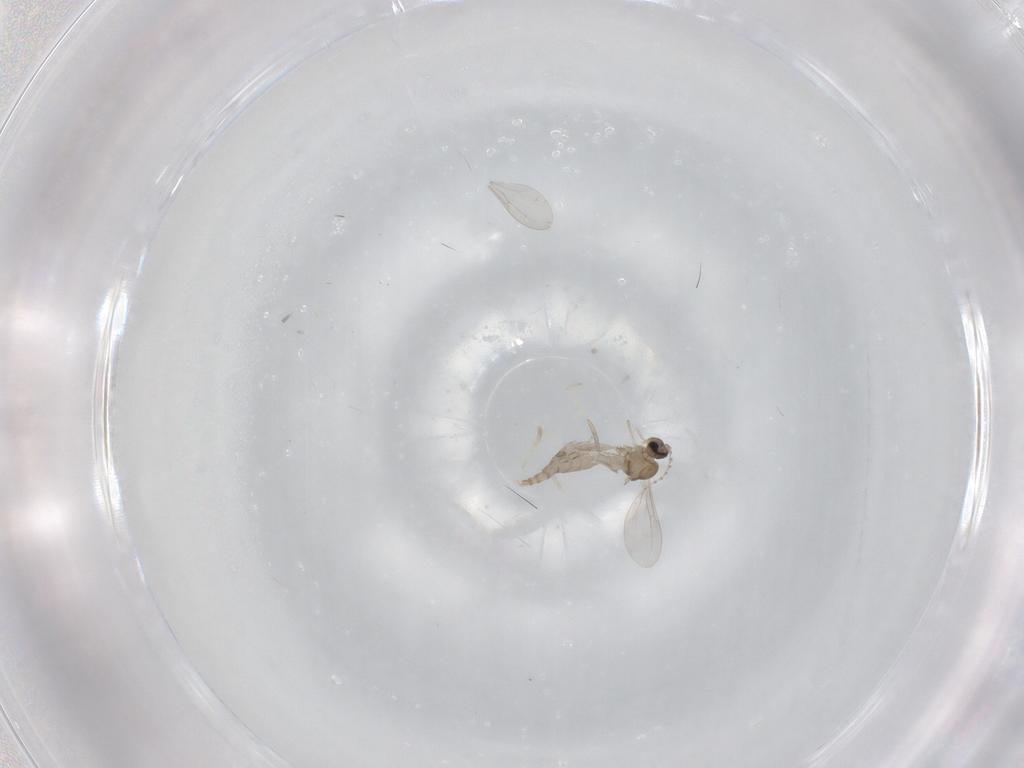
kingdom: Animalia
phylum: Arthropoda
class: Insecta
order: Diptera
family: Cecidomyiidae
